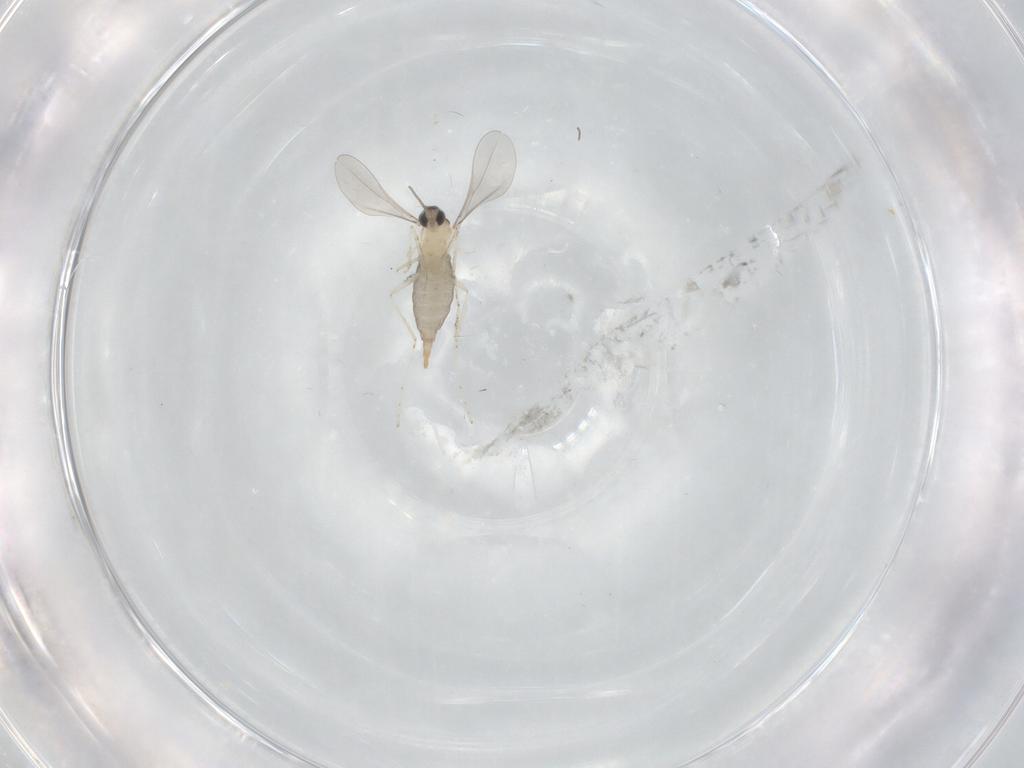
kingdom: Animalia
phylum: Arthropoda
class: Insecta
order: Diptera
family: Cecidomyiidae
